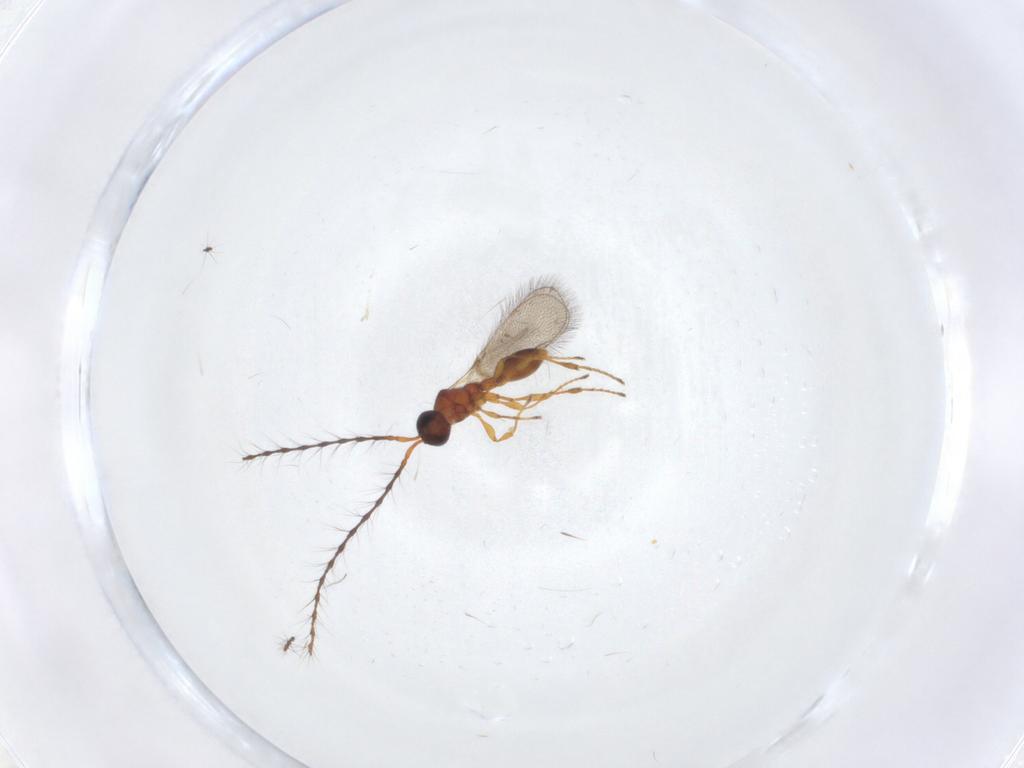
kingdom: Animalia
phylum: Arthropoda
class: Insecta
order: Hymenoptera
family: Diapriidae
